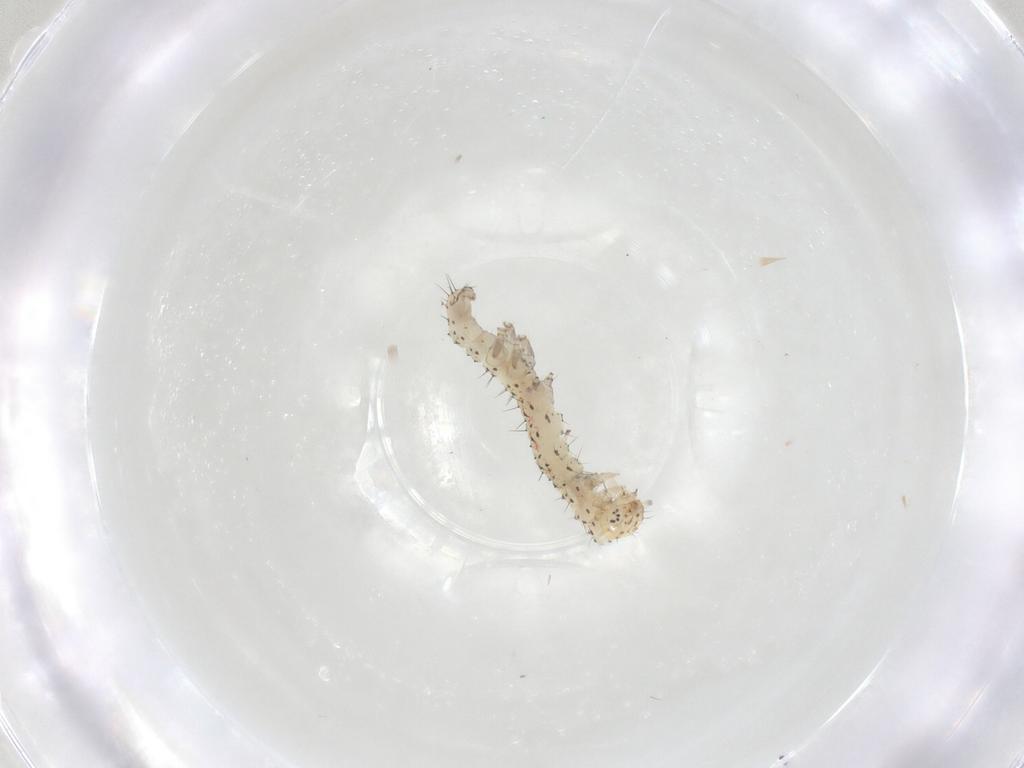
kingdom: Animalia
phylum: Arthropoda
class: Insecta
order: Lepidoptera
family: Erebidae
